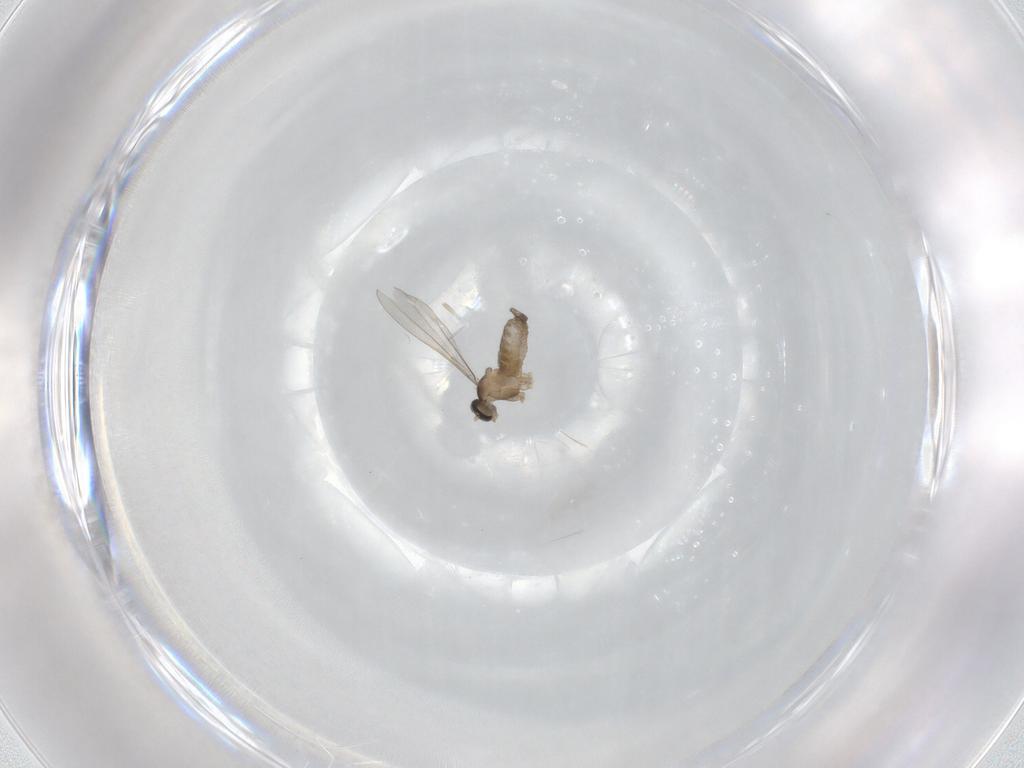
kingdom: Animalia
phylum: Arthropoda
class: Insecta
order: Diptera
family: Cecidomyiidae
